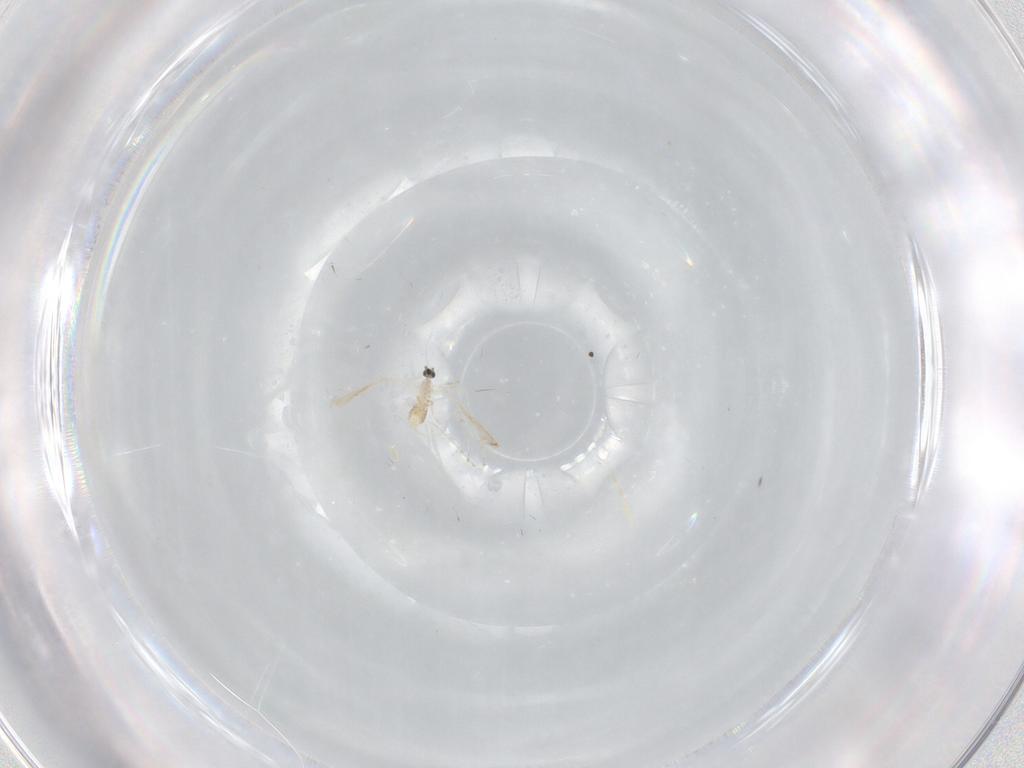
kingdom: Animalia
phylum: Arthropoda
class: Insecta
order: Diptera
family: Cecidomyiidae
